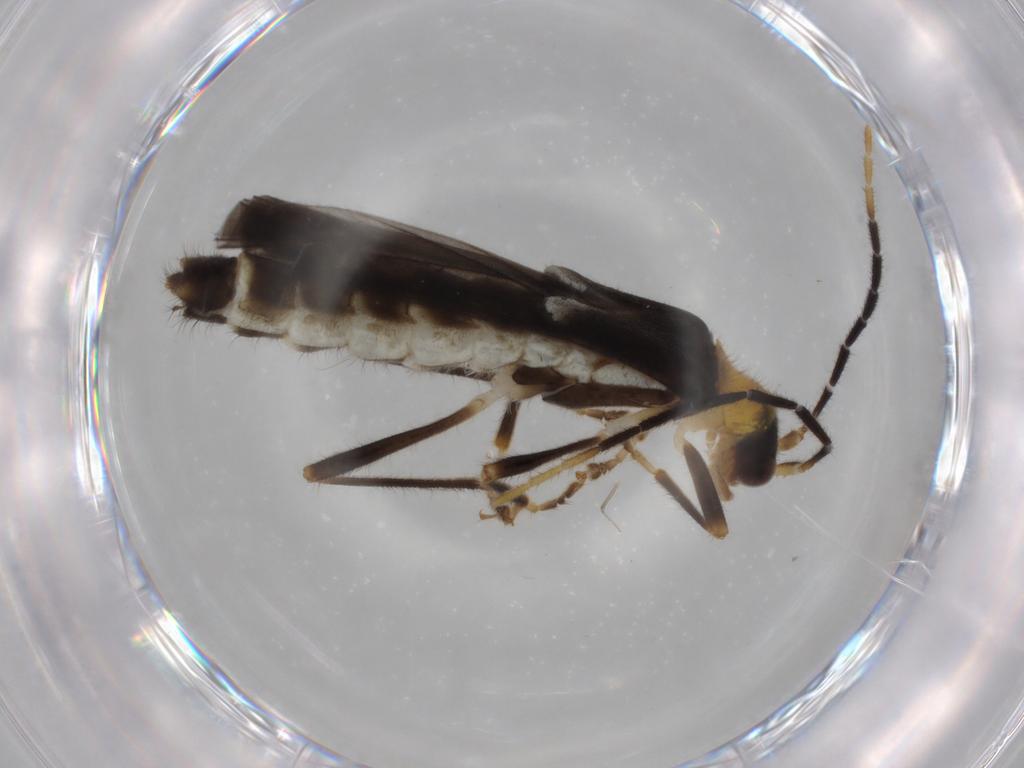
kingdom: Animalia
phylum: Arthropoda
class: Insecta
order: Coleoptera
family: Cantharidae
